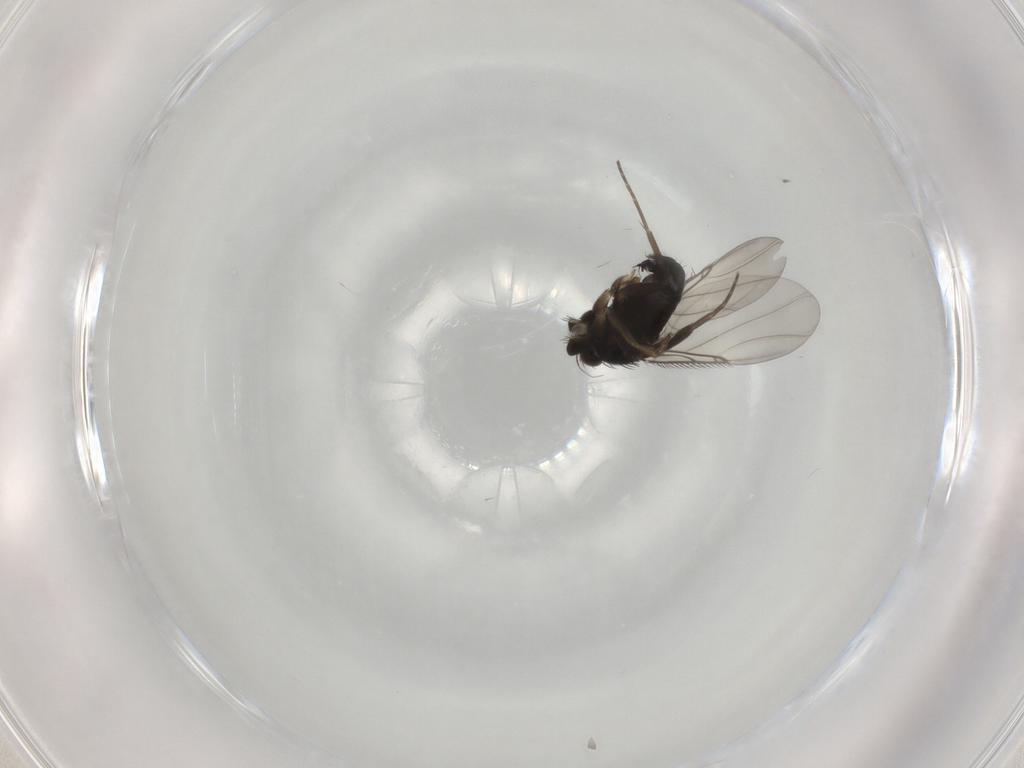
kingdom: Animalia
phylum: Arthropoda
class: Insecta
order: Diptera
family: Phoridae
